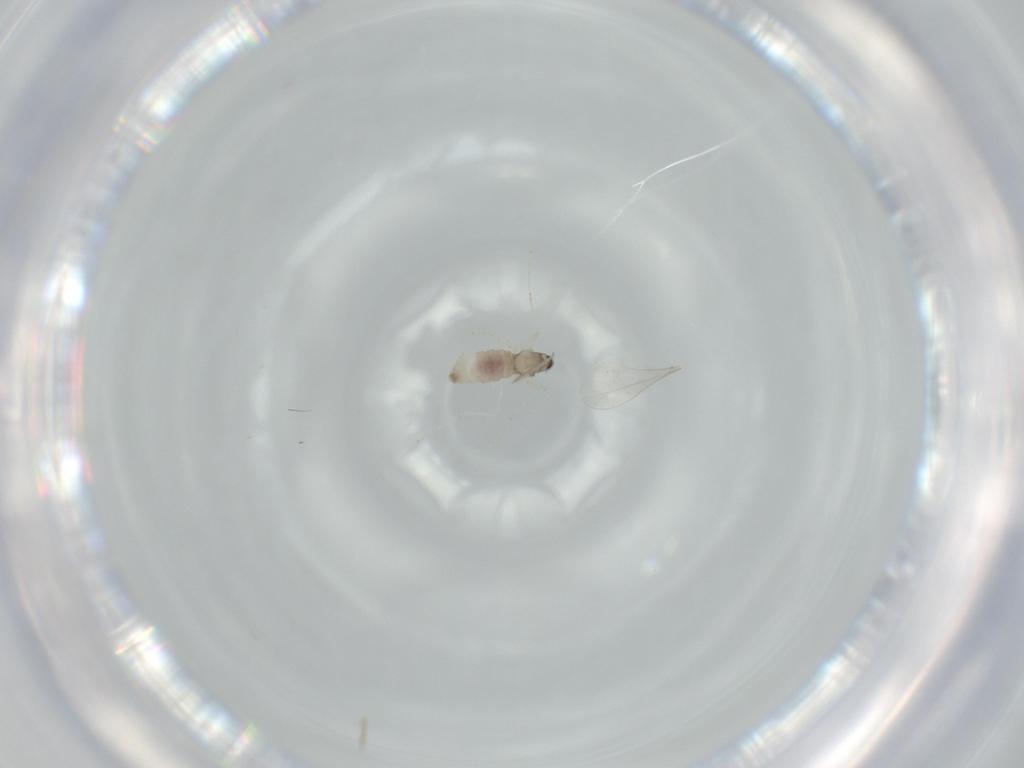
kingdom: Animalia
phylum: Arthropoda
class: Insecta
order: Diptera
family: Cecidomyiidae
